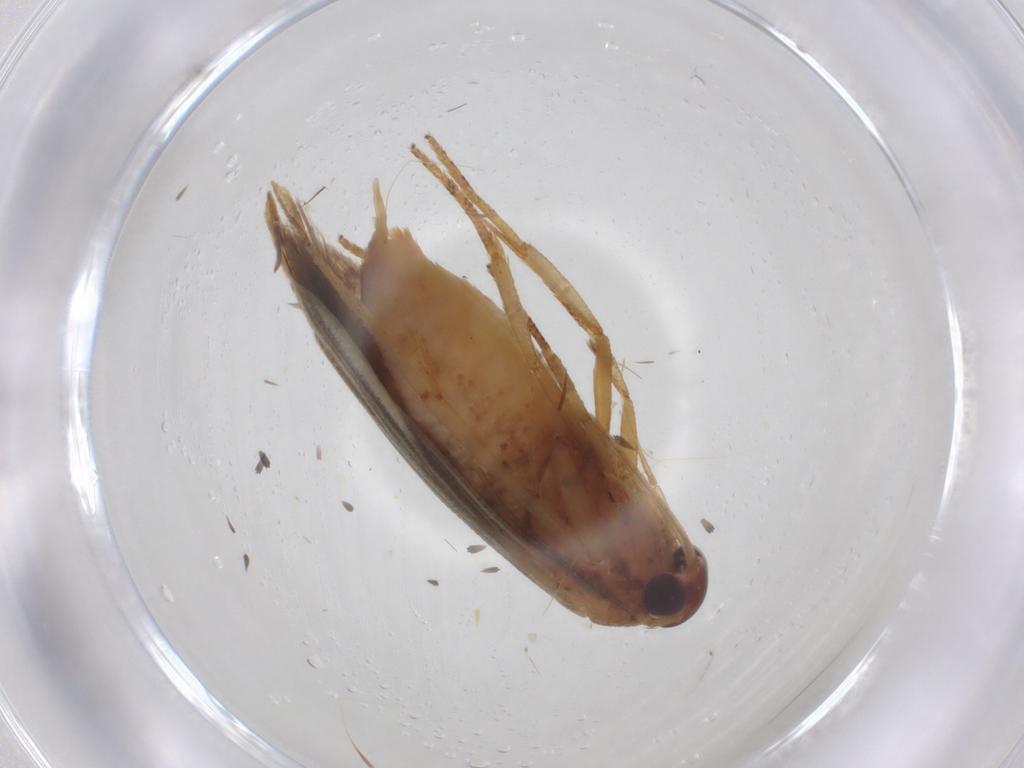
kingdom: Animalia
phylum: Arthropoda
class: Insecta
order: Lepidoptera
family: Blastobasidae
